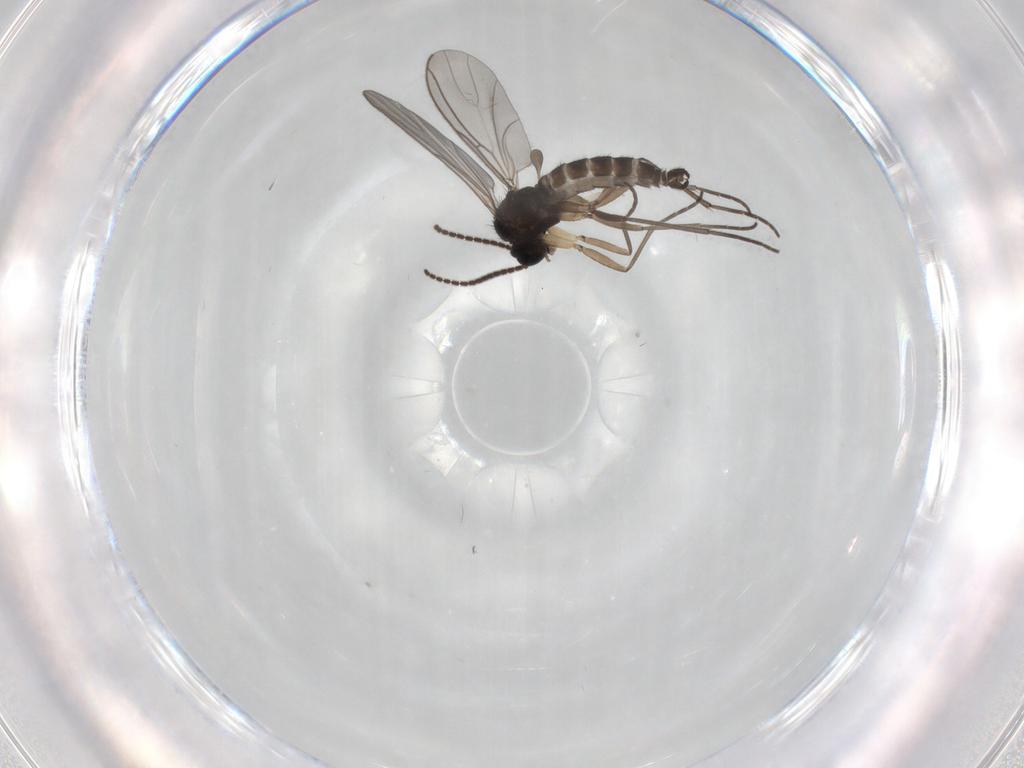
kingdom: Animalia
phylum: Arthropoda
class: Insecta
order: Diptera
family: Sciaridae
